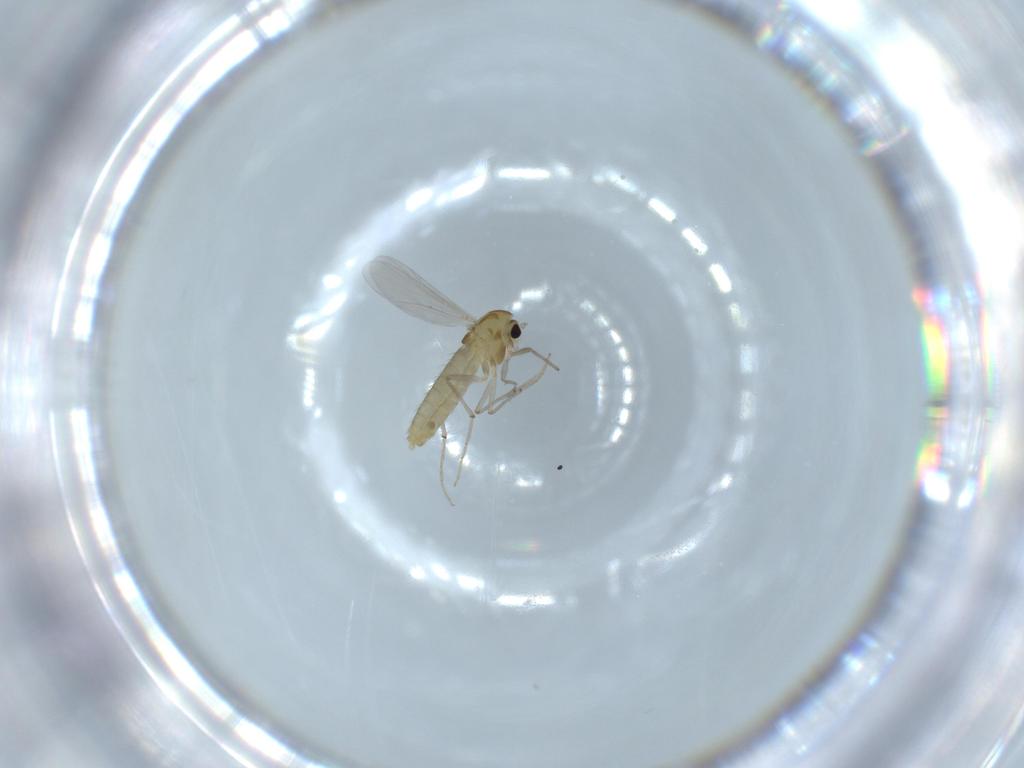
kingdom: Animalia
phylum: Arthropoda
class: Insecta
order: Diptera
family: Chironomidae
